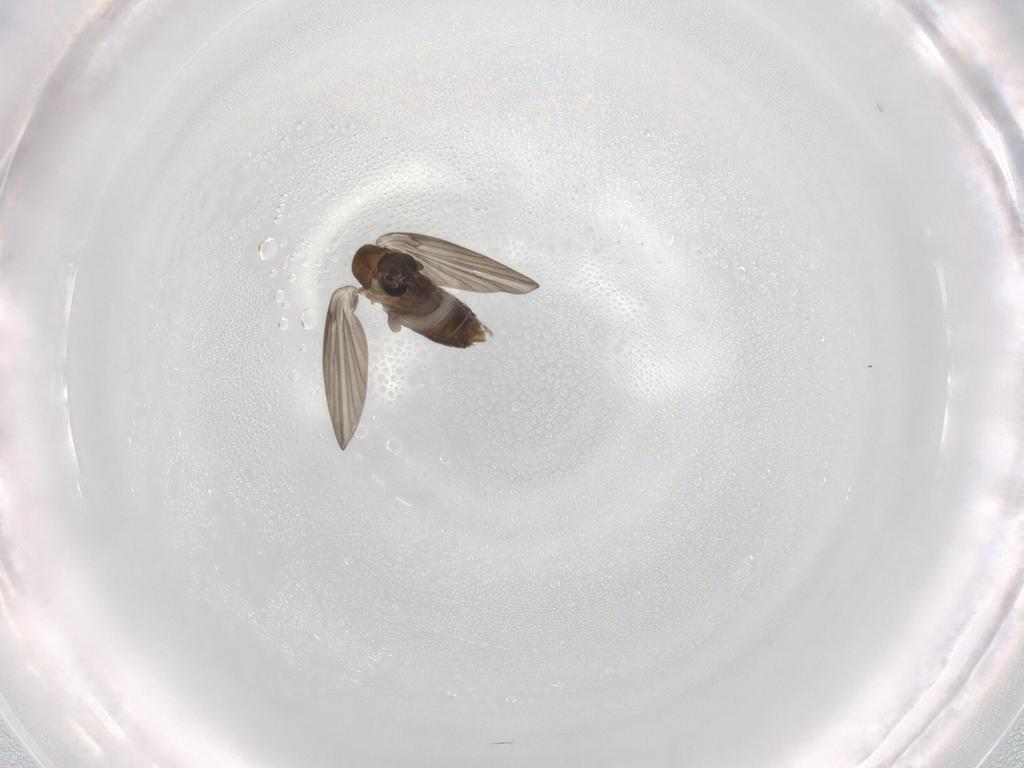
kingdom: Animalia
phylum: Arthropoda
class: Insecta
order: Diptera
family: Psychodidae
